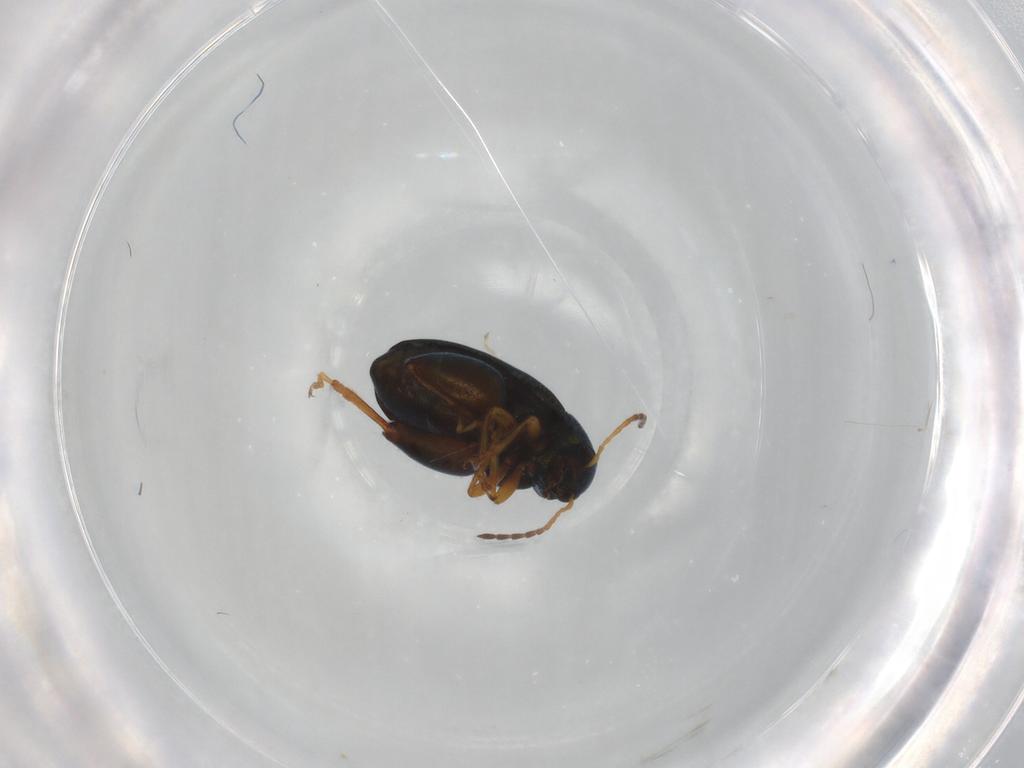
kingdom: Animalia
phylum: Arthropoda
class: Insecta
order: Coleoptera
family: Chrysomelidae
